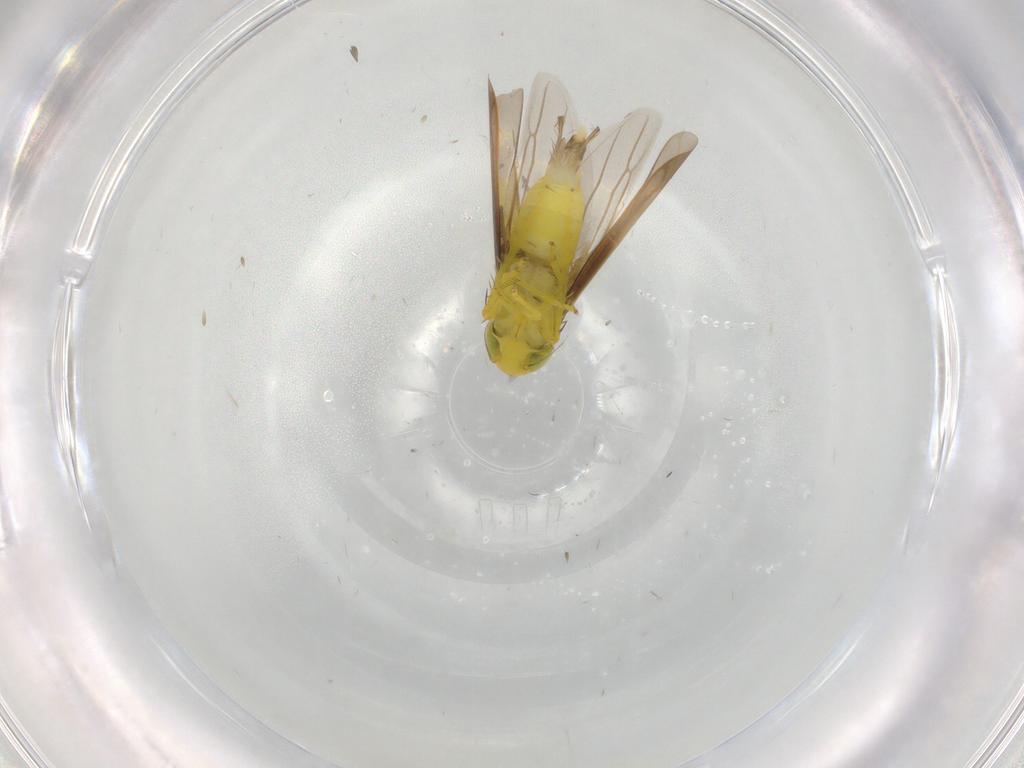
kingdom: Animalia
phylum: Arthropoda
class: Insecta
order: Hemiptera
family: Cicadellidae
